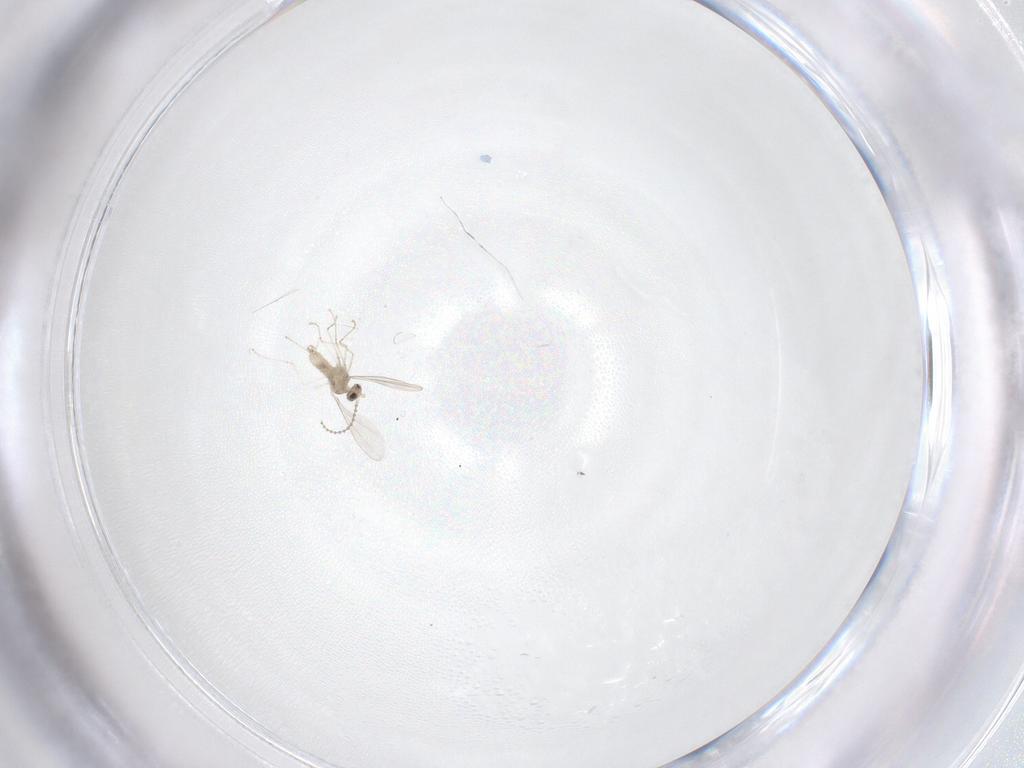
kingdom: Animalia
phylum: Arthropoda
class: Insecta
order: Diptera
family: Cecidomyiidae
